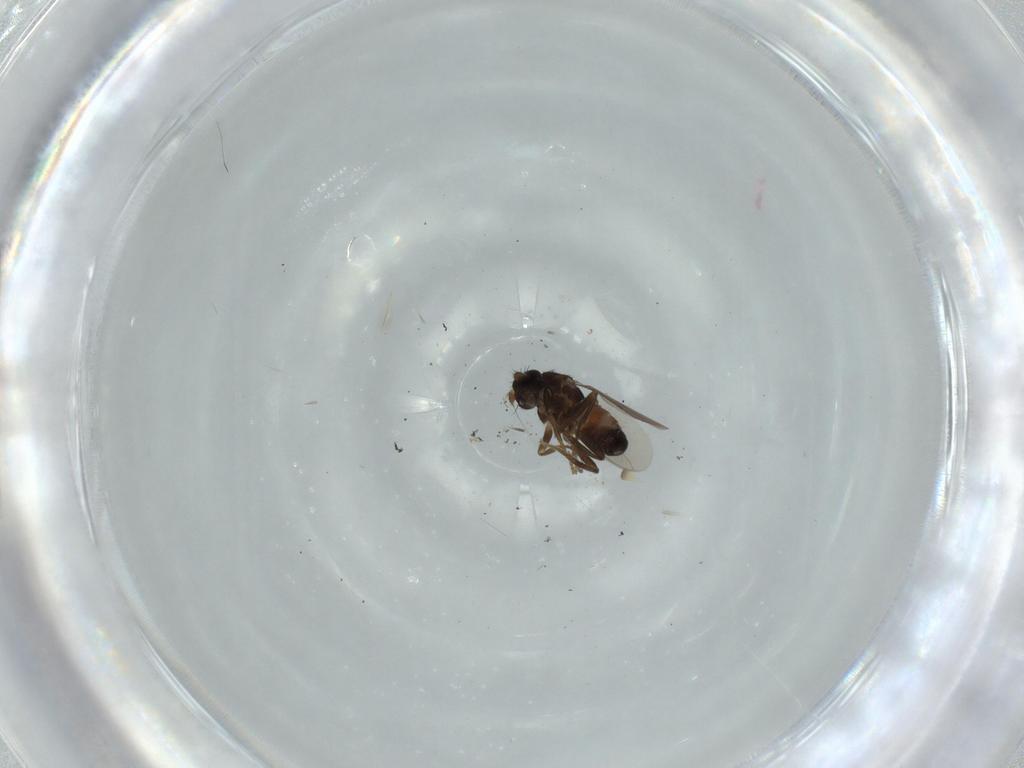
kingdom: Animalia
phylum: Arthropoda
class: Insecta
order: Diptera
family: Sphaeroceridae
